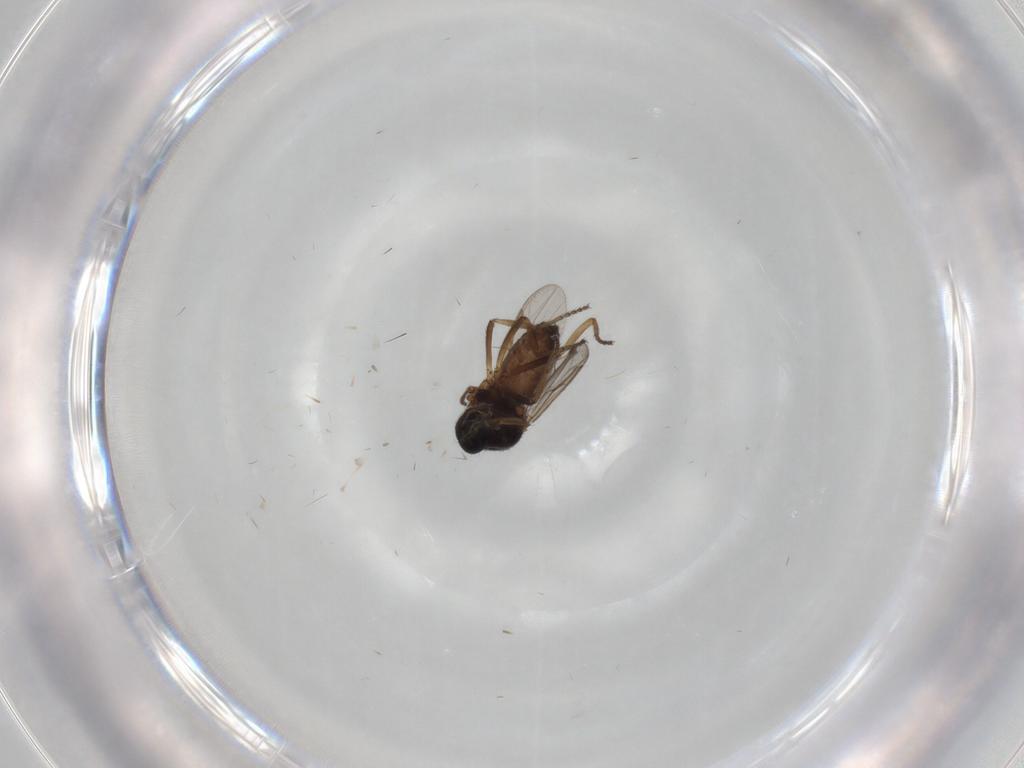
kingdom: Animalia
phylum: Arthropoda
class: Insecta
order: Diptera
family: Ceratopogonidae
